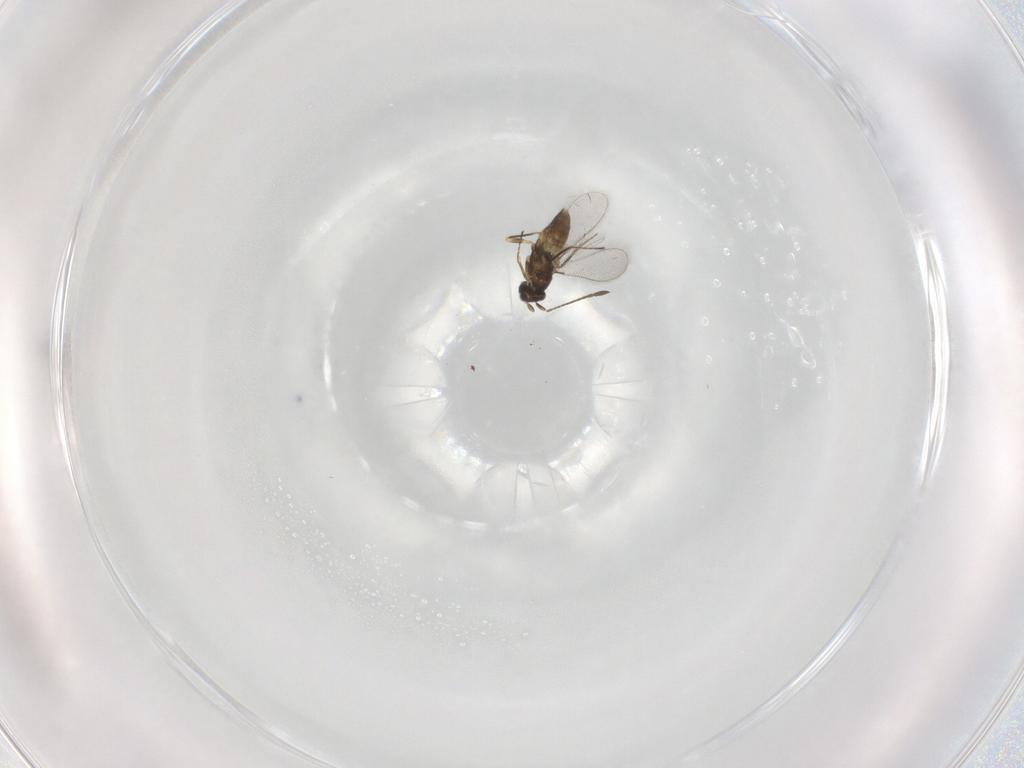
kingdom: Animalia
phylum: Arthropoda
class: Insecta
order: Hymenoptera
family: Mymaridae
